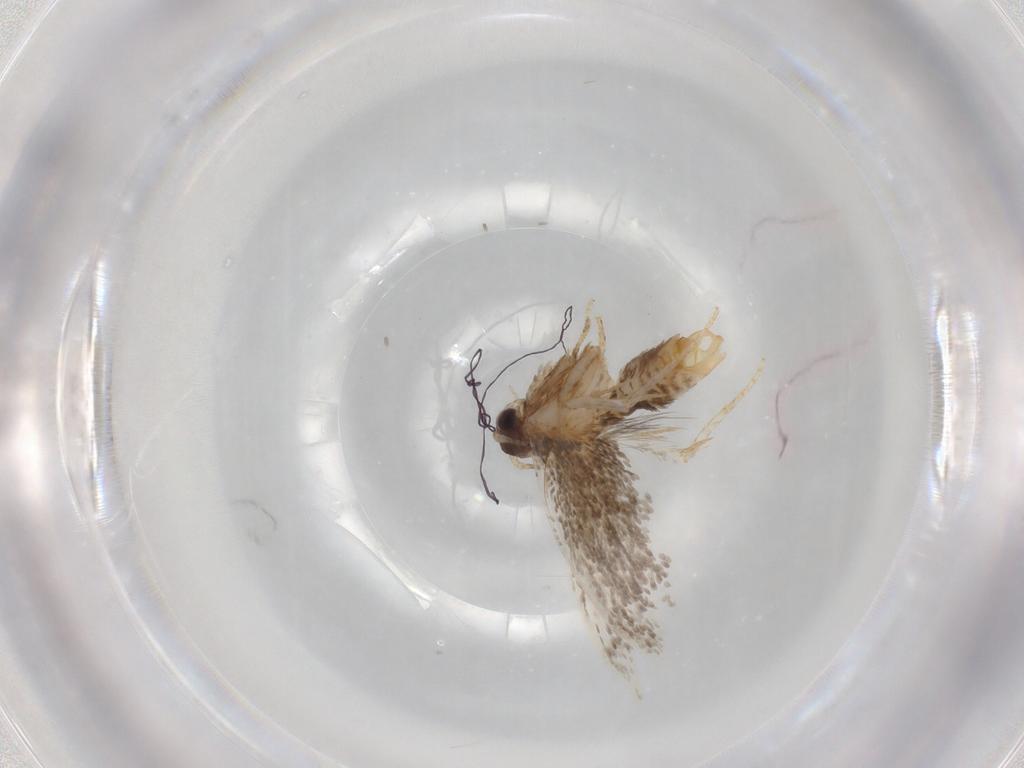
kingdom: Animalia
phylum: Arthropoda
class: Insecta
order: Lepidoptera
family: Tineidae
